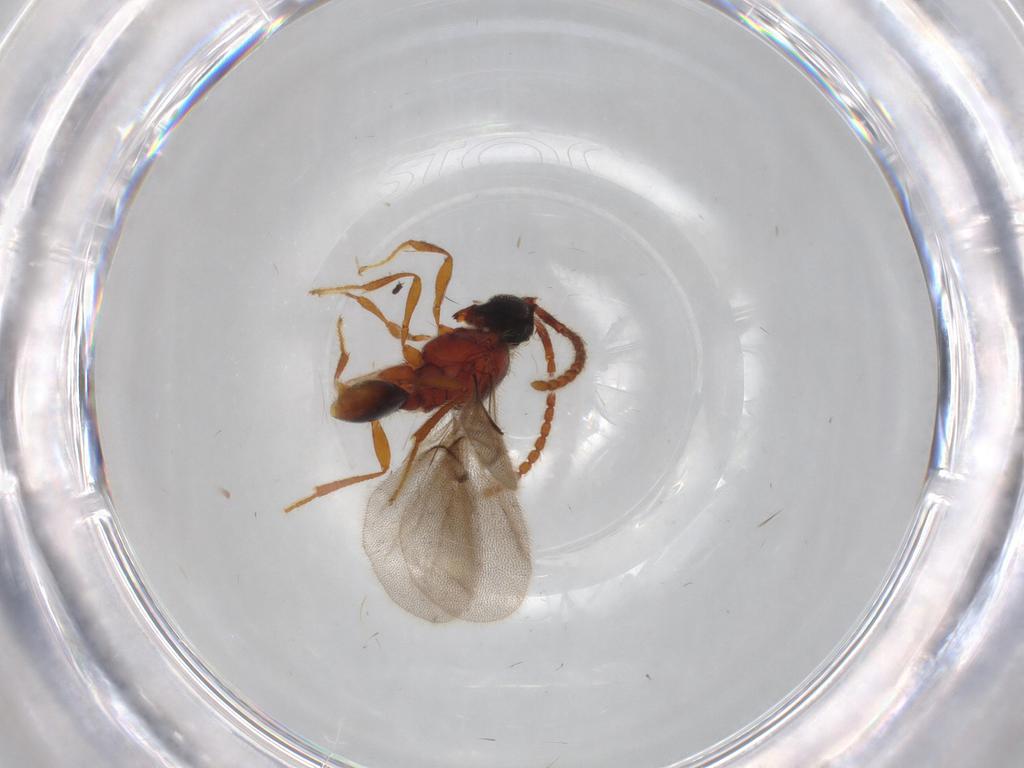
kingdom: Animalia
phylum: Arthropoda
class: Insecta
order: Hymenoptera
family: Diapriidae
